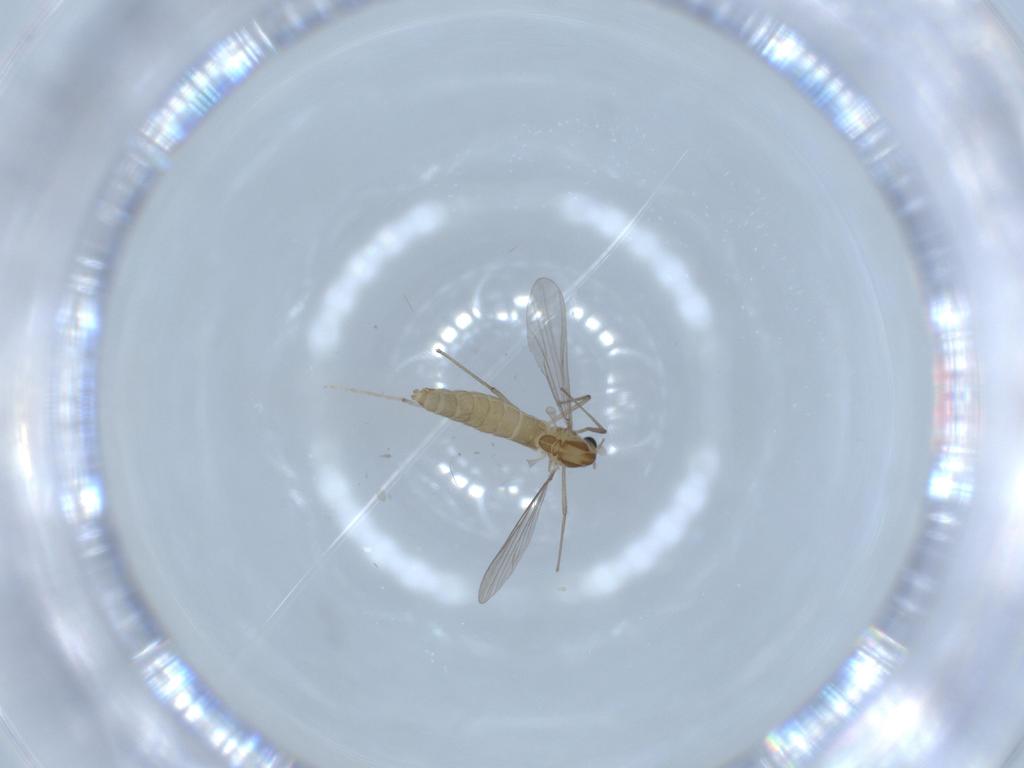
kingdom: Animalia
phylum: Arthropoda
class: Insecta
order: Diptera
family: Chironomidae
